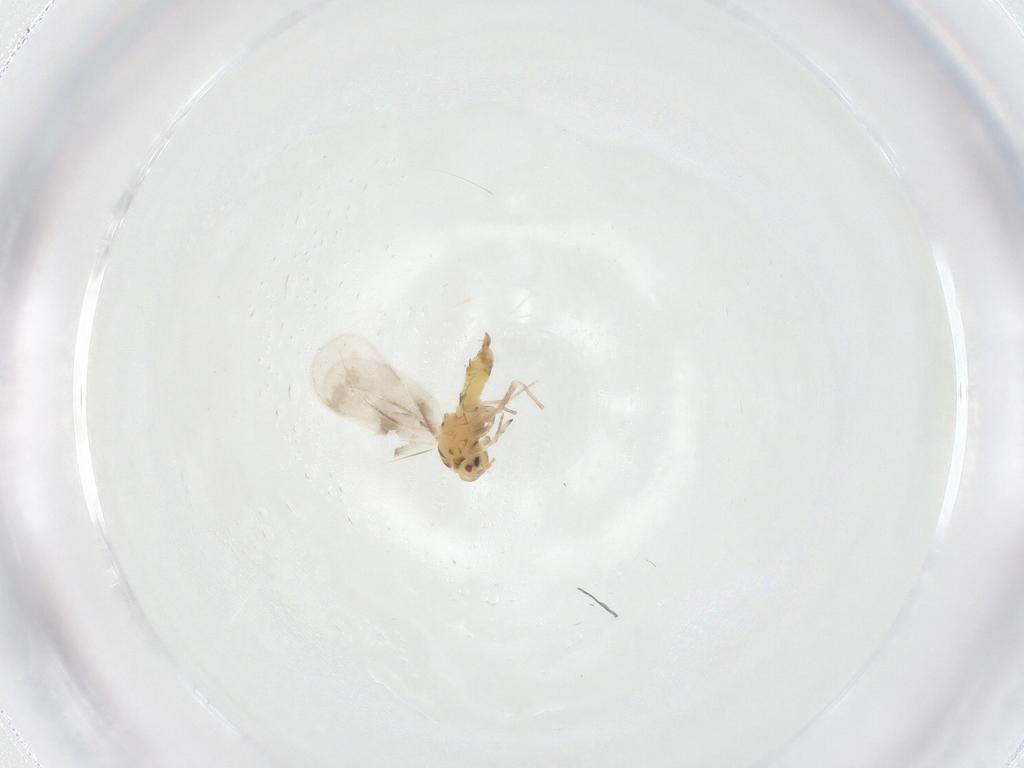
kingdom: Animalia
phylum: Arthropoda
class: Insecta
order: Hemiptera
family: Aleyrodidae
